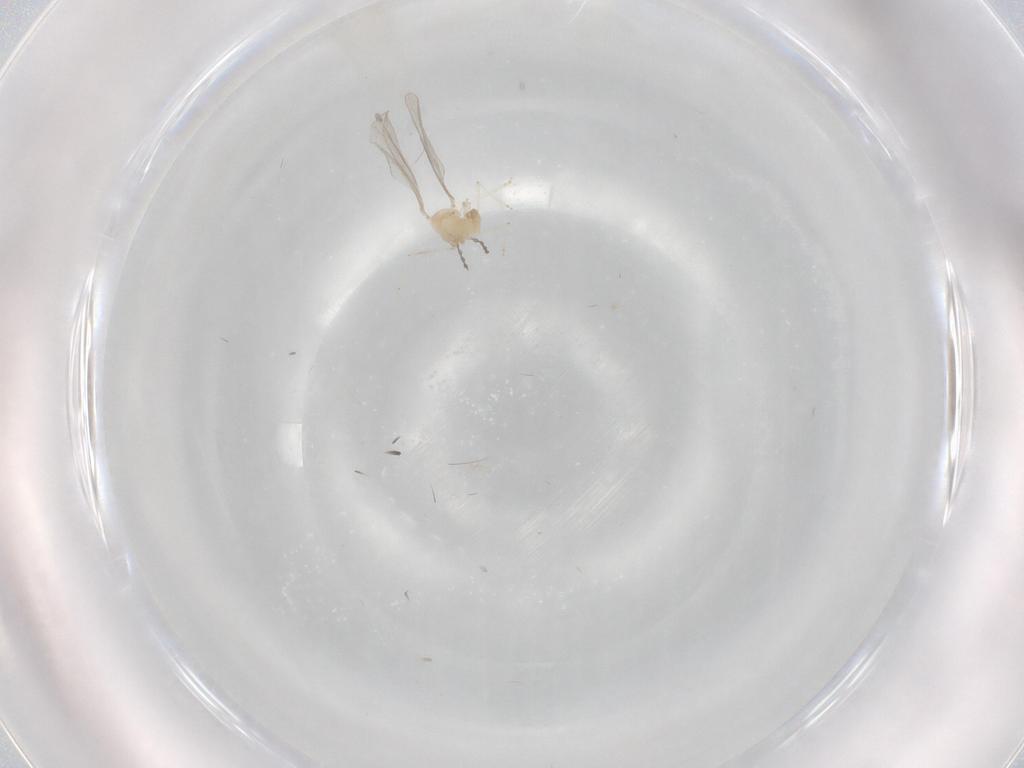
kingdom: Animalia
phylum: Arthropoda
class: Insecta
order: Diptera
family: Cecidomyiidae
